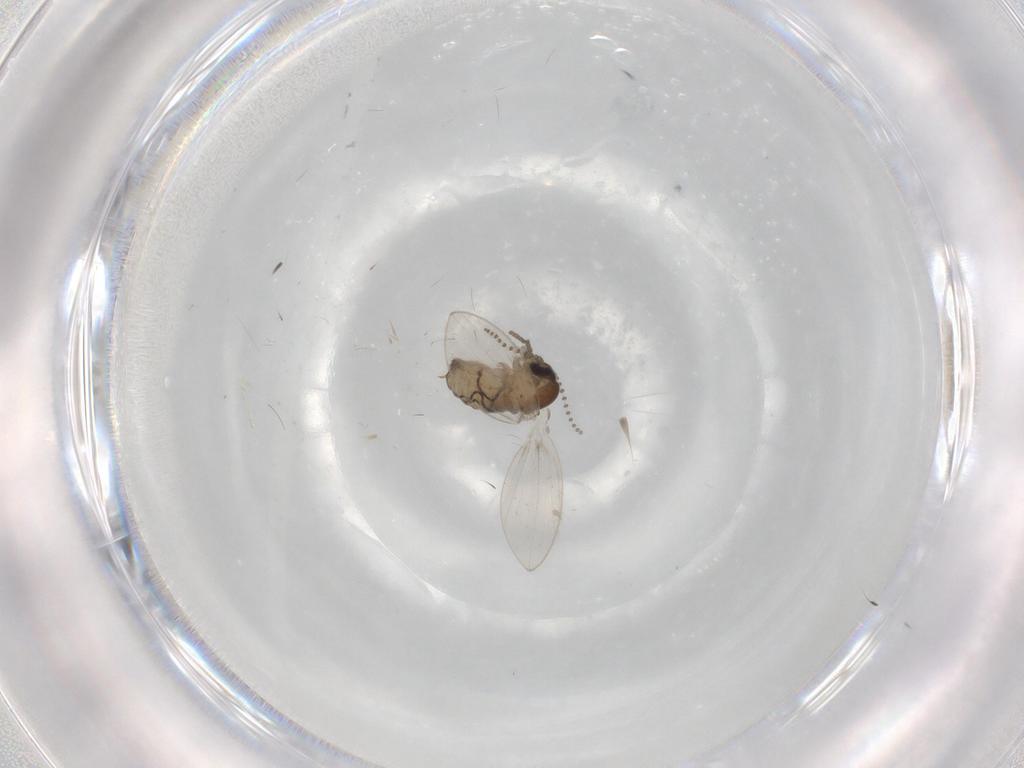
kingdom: Animalia
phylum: Arthropoda
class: Insecta
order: Diptera
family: Psychodidae
